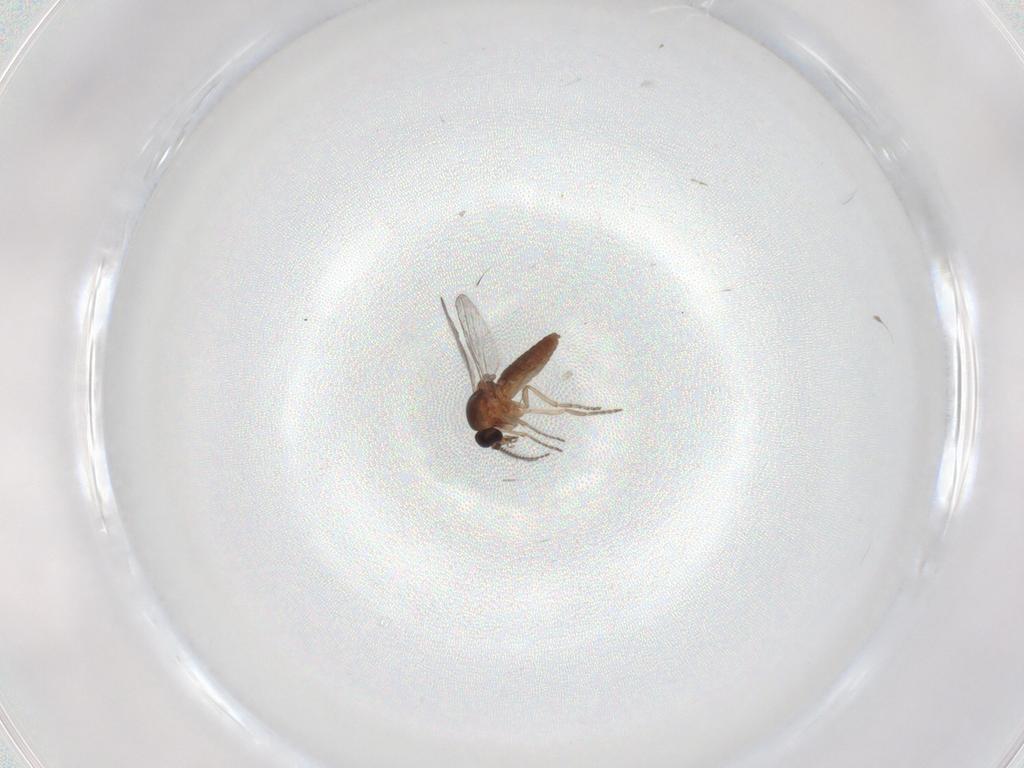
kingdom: Animalia
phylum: Arthropoda
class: Insecta
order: Diptera
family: Ceratopogonidae
